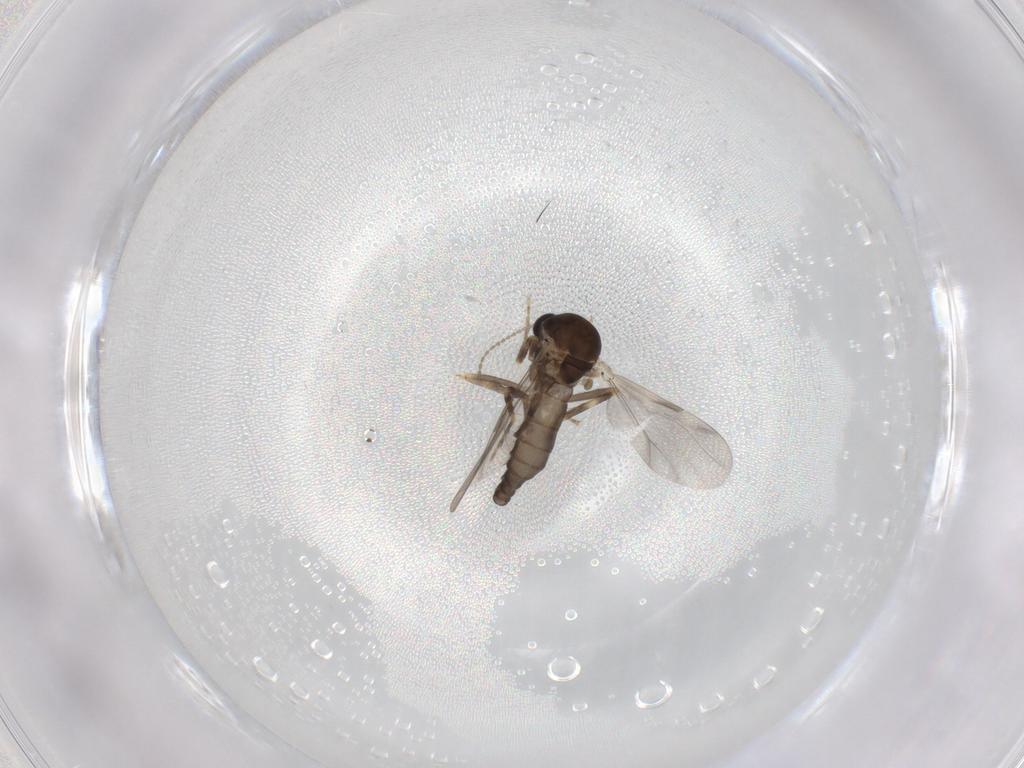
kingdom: Animalia
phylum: Arthropoda
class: Insecta
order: Diptera
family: Ceratopogonidae
